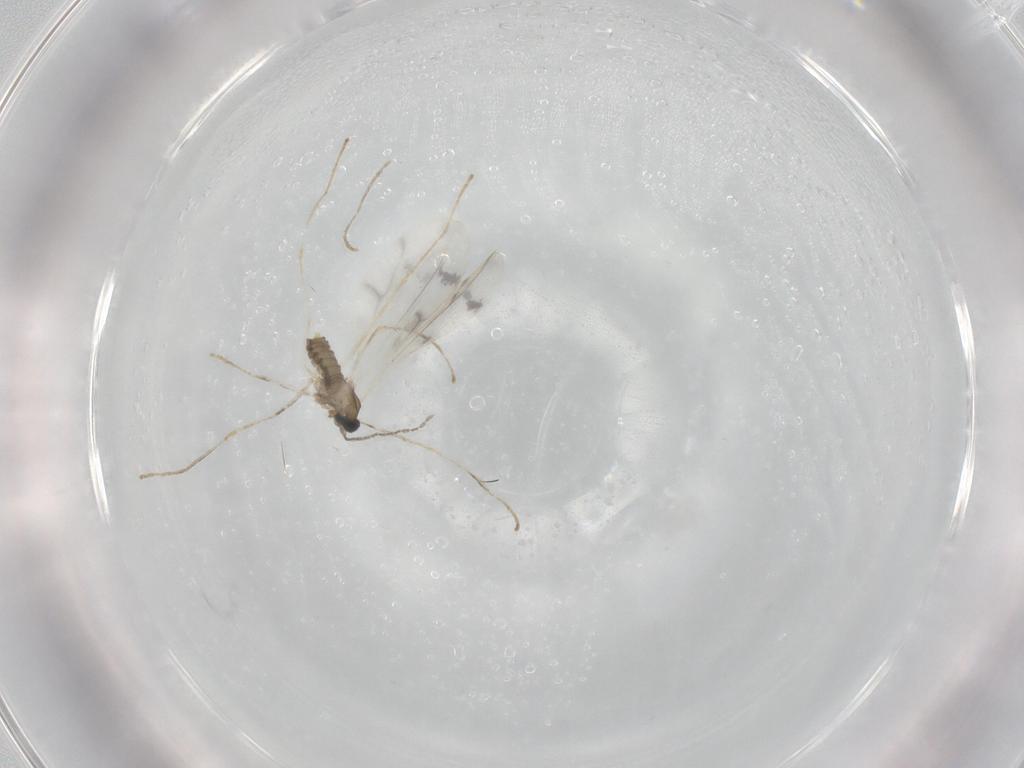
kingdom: Animalia
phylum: Arthropoda
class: Insecta
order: Diptera
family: Cecidomyiidae
